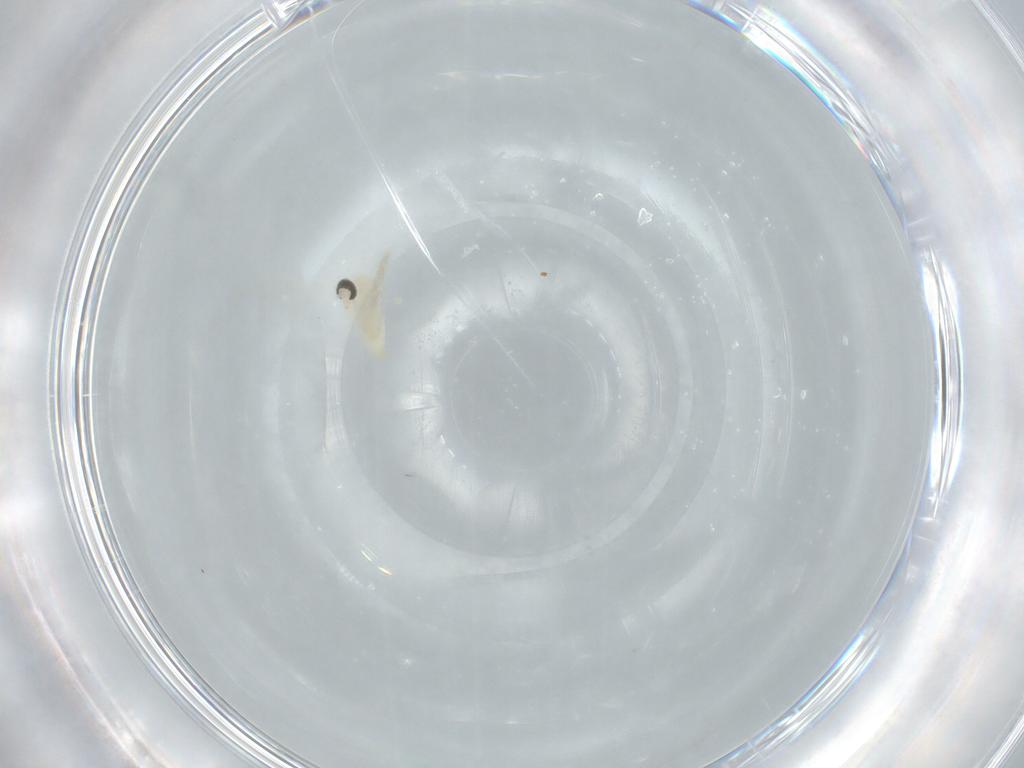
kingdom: Animalia
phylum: Arthropoda
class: Insecta
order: Diptera
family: Cecidomyiidae
